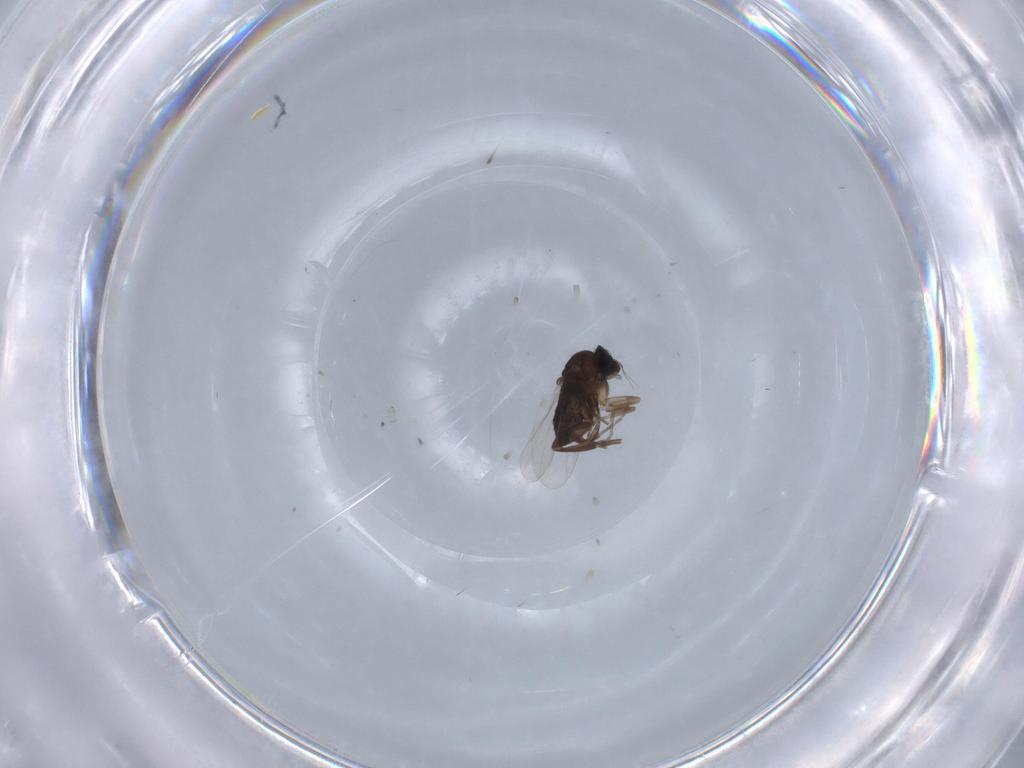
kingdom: Animalia
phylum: Arthropoda
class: Insecta
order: Diptera
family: Phoridae
